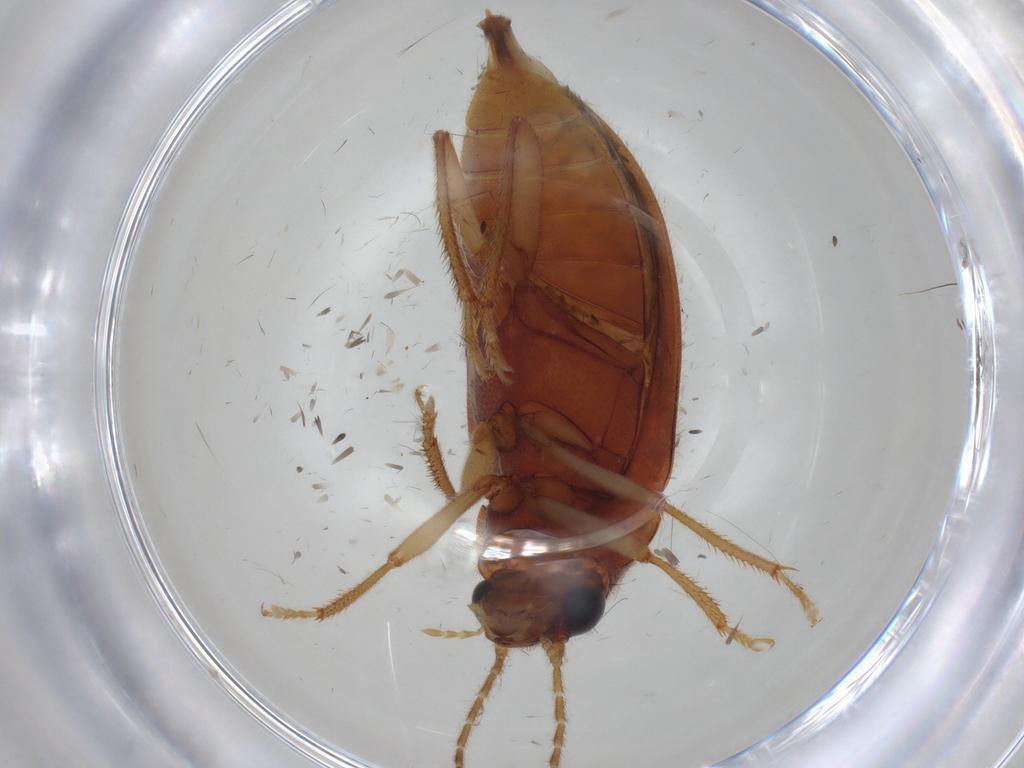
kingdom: Animalia
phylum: Arthropoda
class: Insecta
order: Coleoptera
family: Ptilodactylidae
